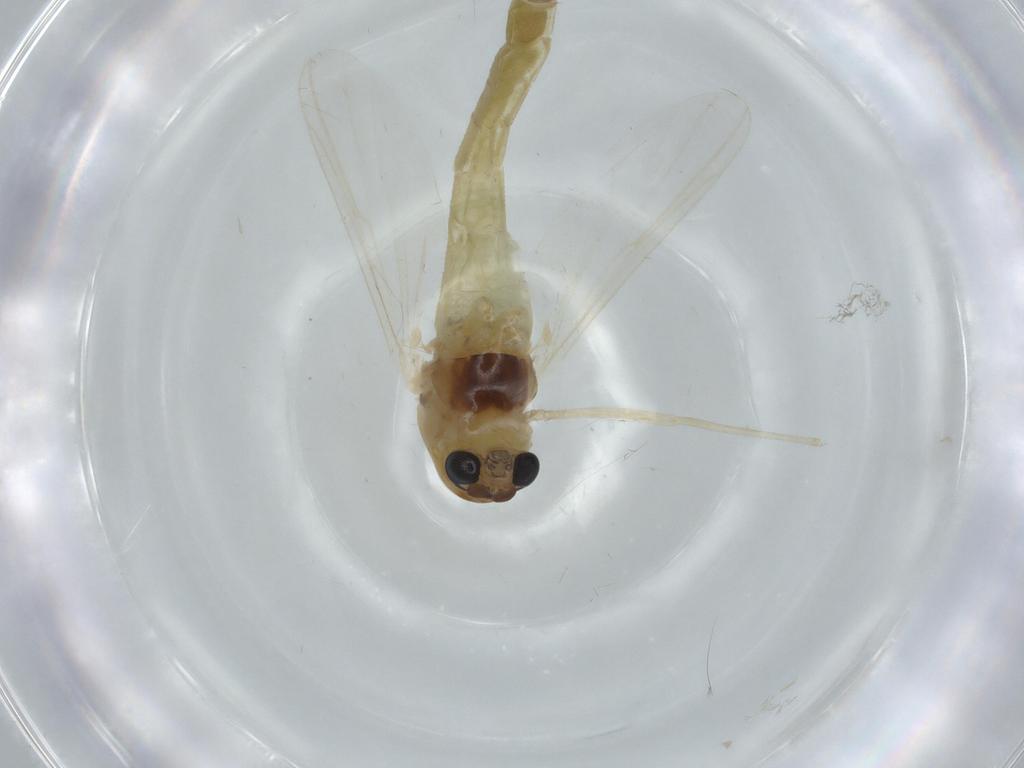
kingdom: Animalia
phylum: Arthropoda
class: Insecta
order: Diptera
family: Chironomidae
